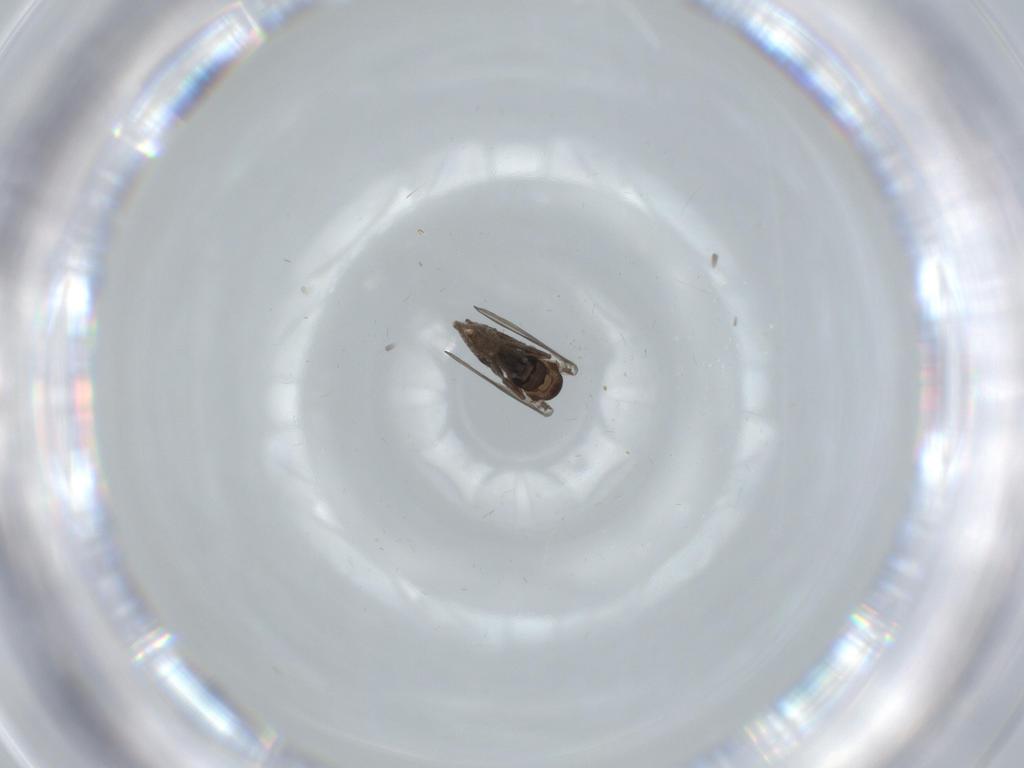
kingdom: Animalia
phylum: Arthropoda
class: Insecta
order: Diptera
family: Psychodidae
